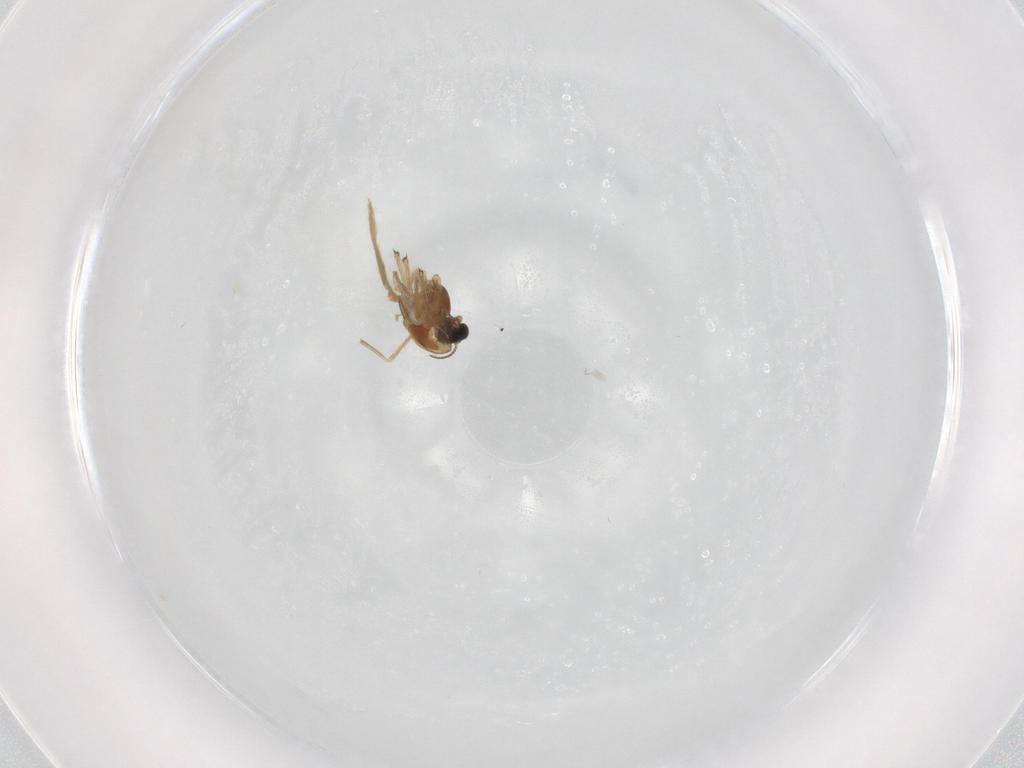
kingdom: Animalia
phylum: Arthropoda
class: Insecta
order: Diptera
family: Chironomidae
